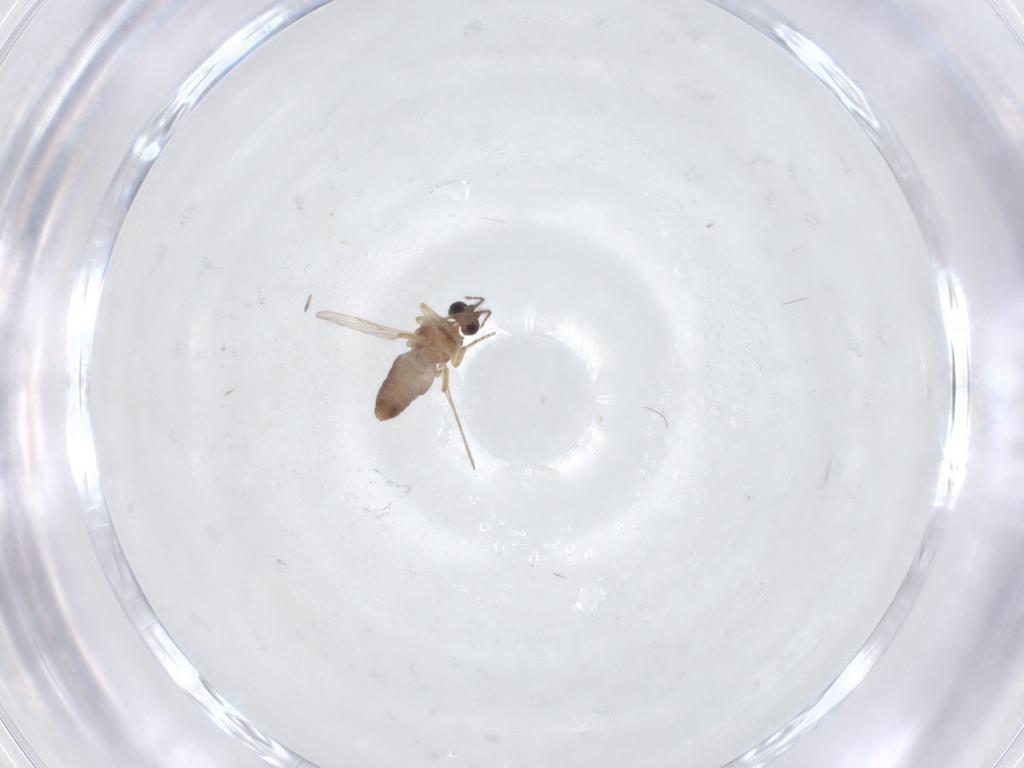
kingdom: Animalia
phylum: Arthropoda
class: Insecta
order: Diptera
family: Ceratopogonidae
